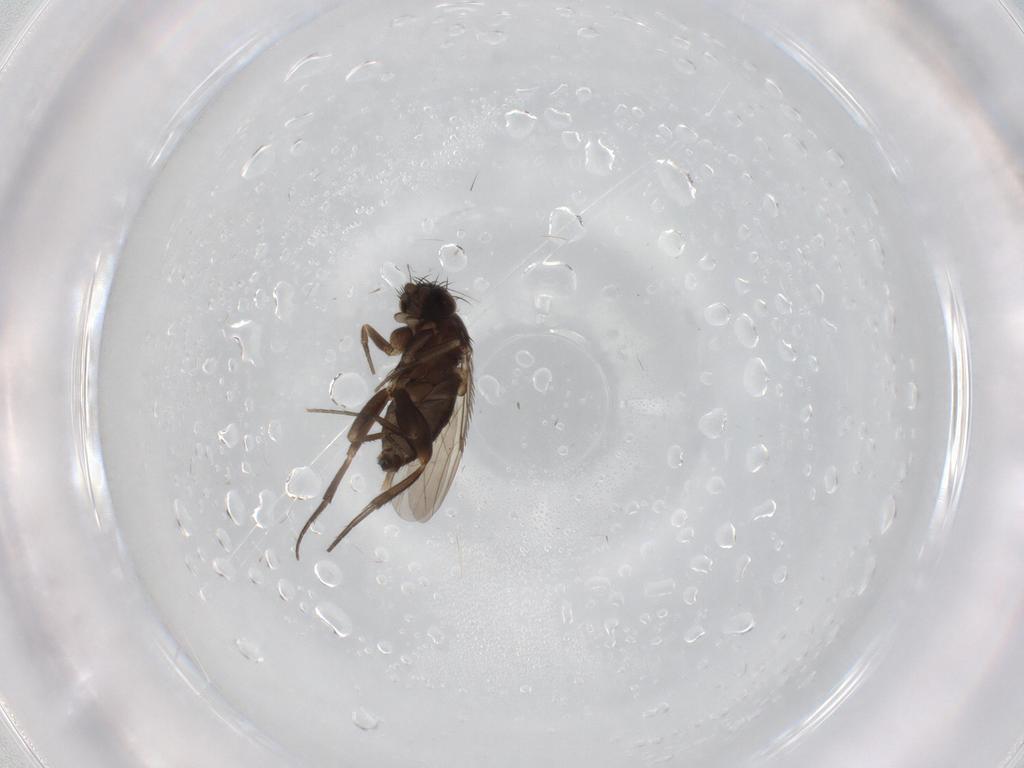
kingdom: Animalia
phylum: Arthropoda
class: Insecta
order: Diptera
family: Phoridae
